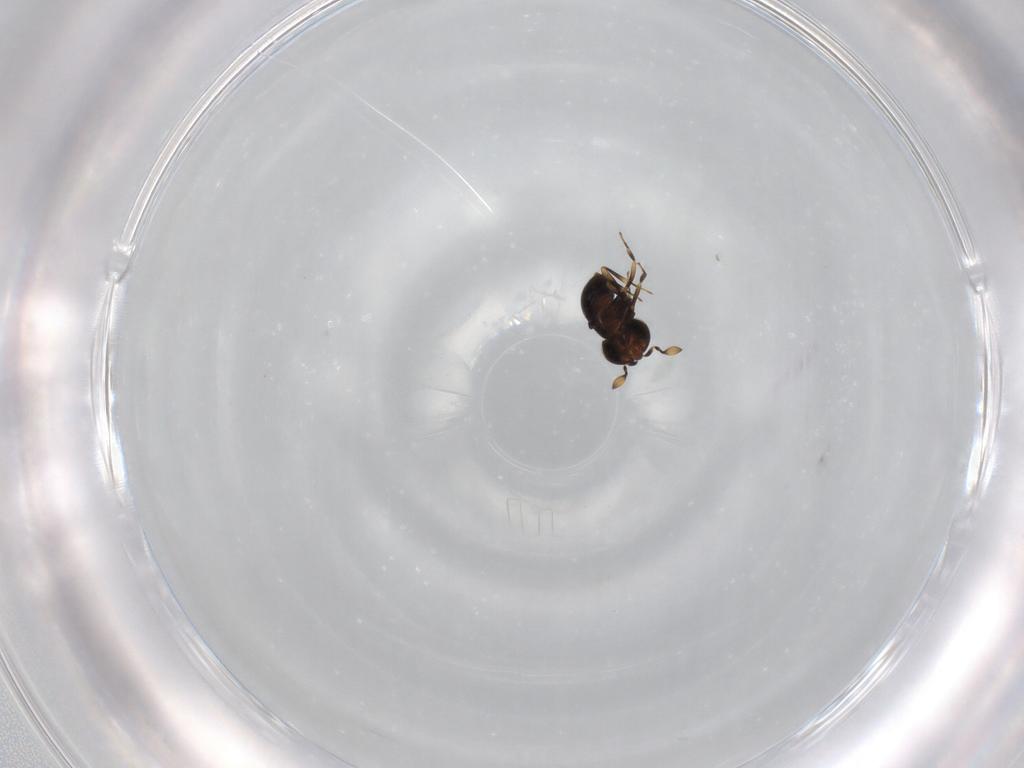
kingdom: Animalia
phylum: Arthropoda
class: Insecta
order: Hymenoptera
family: Scelionidae
